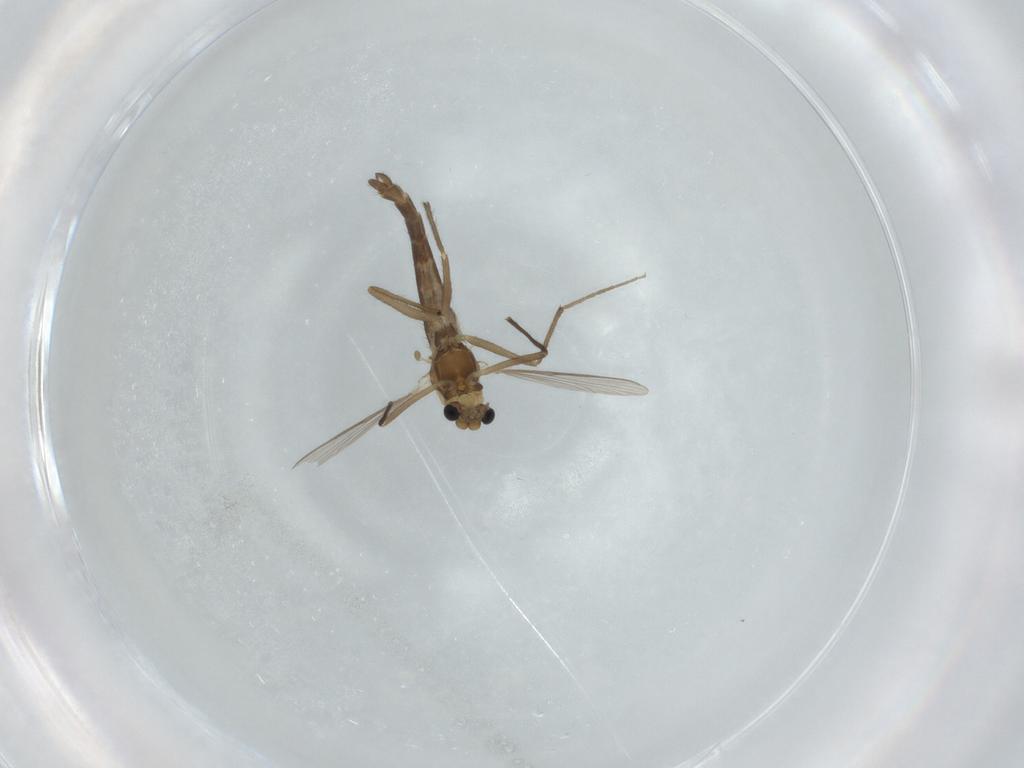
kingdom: Animalia
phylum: Arthropoda
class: Insecta
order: Diptera
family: Chironomidae
